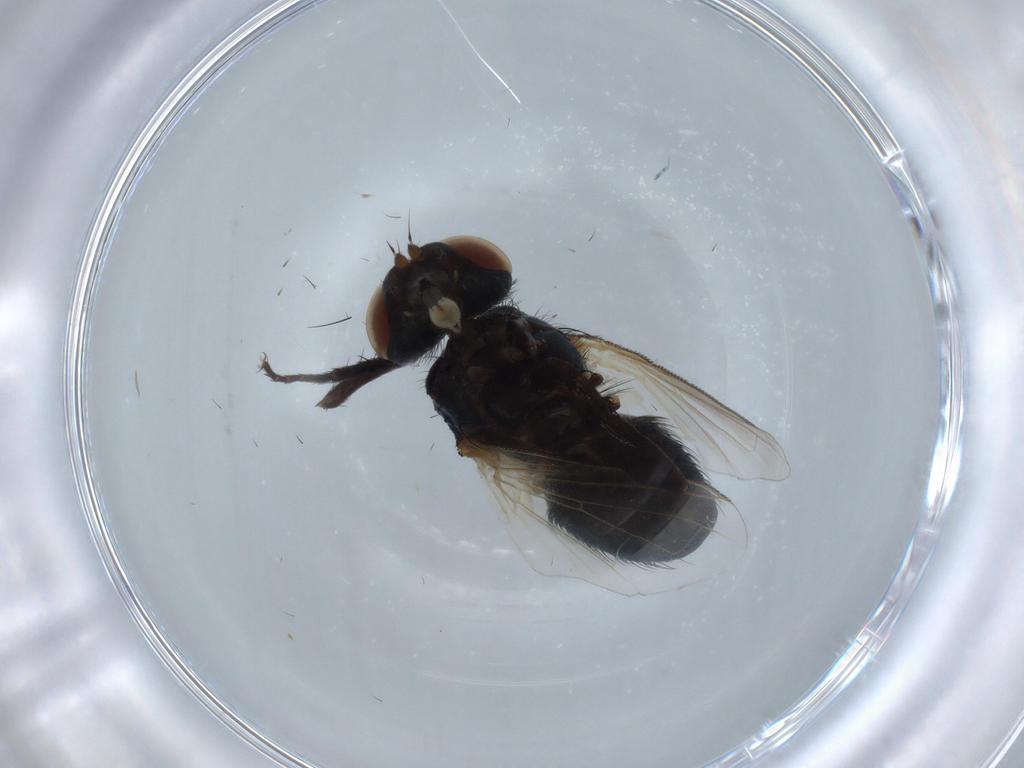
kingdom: Animalia
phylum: Arthropoda
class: Insecta
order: Diptera
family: Tachinidae
